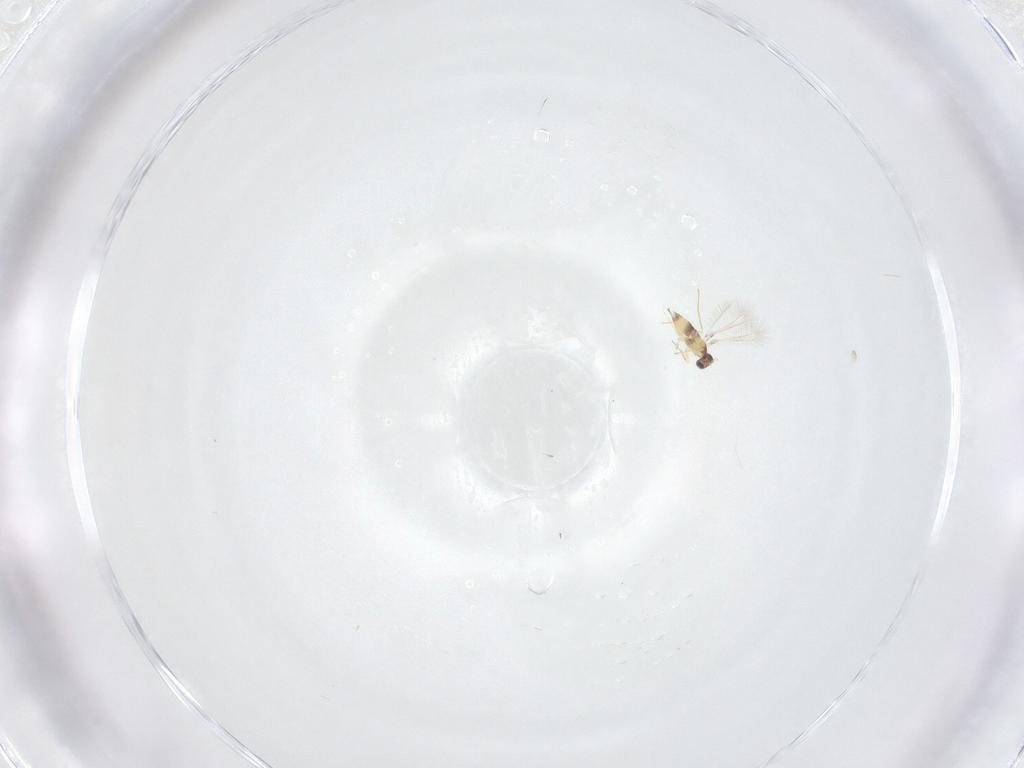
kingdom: Animalia
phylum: Arthropoda
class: Insecta
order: Hymenoptera
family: Mymaridae
